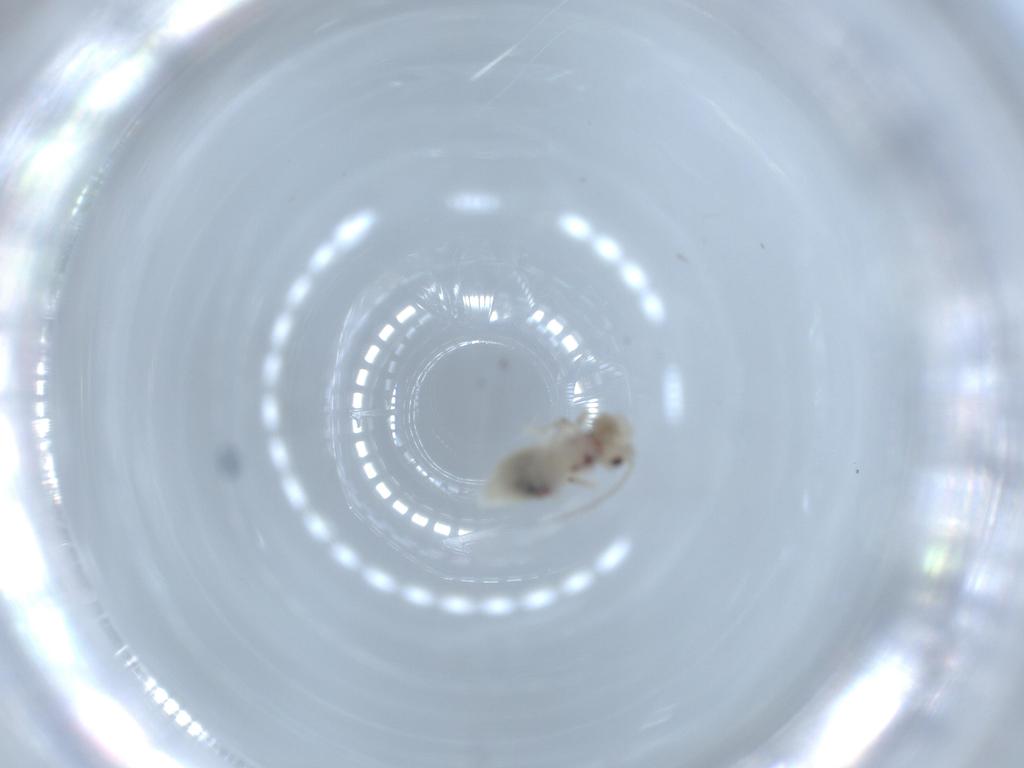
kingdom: Animalia
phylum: Arthropoda
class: Insecta
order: Psocodea
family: Caeciliusidae
